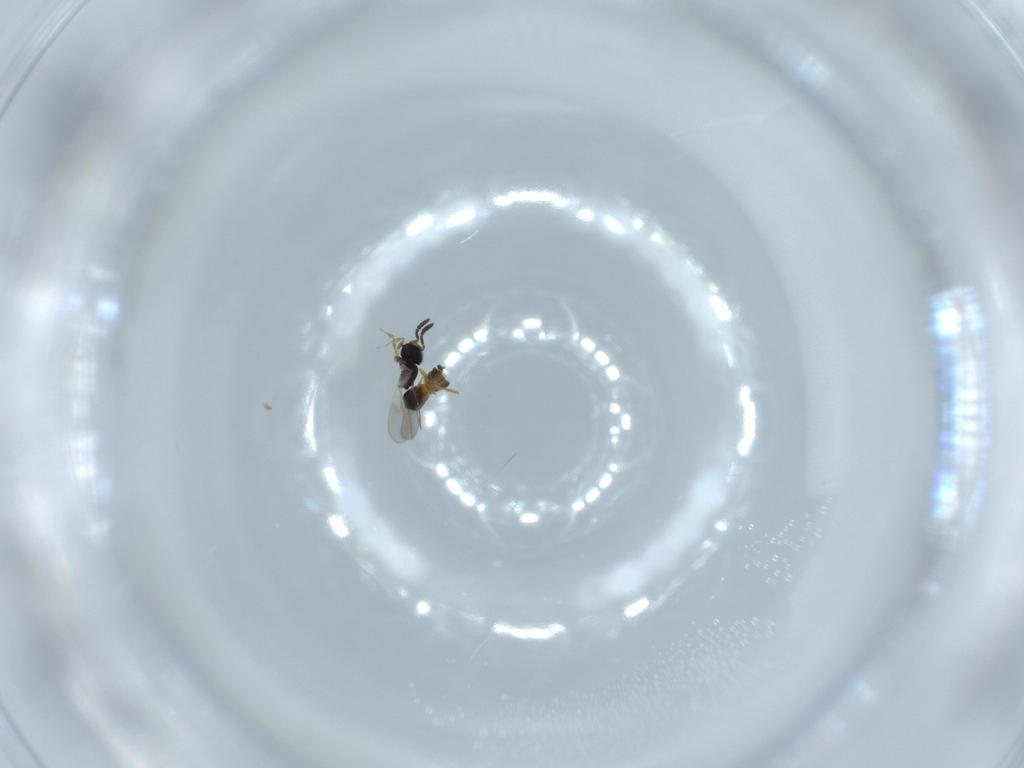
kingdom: Animalia
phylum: Arthropoda
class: Insecta
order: Hymenoptera
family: Scelionidae
